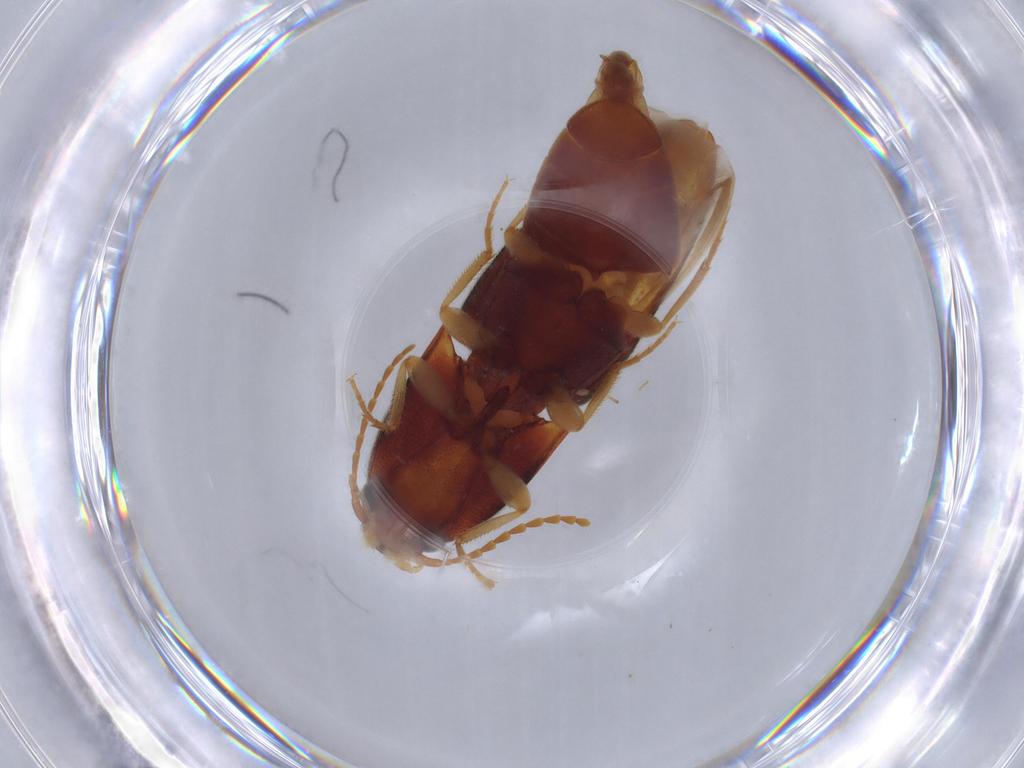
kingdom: Animalia
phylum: Arthropoda
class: Insecta
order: Coleoptera
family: Elateridae
